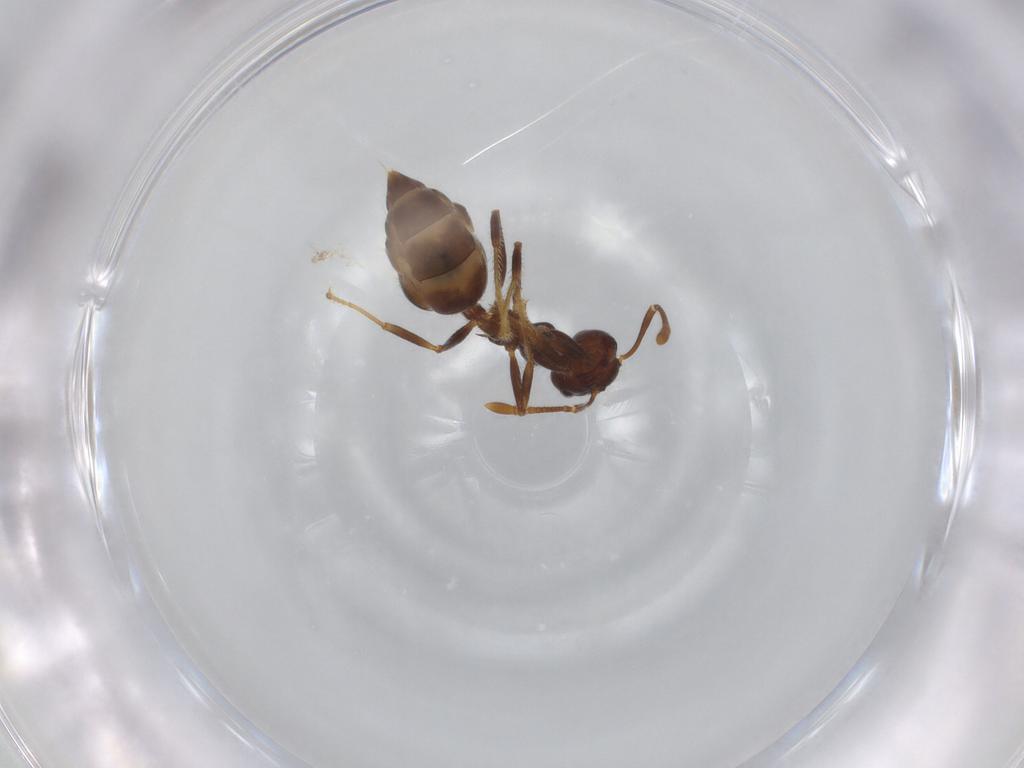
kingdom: Animalia
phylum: Arthropoda
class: Insecta
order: Hymenoptera
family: Formicidae
